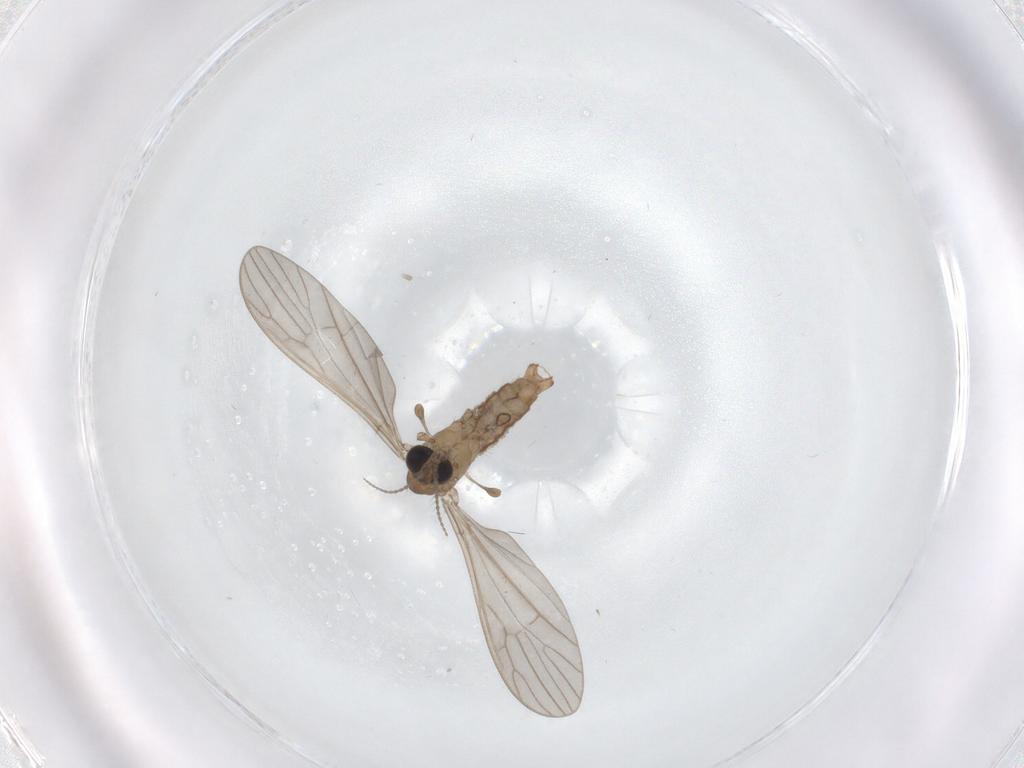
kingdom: Animalia
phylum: Arthropoda
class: Insecta
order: Diptera
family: Limoniidae
